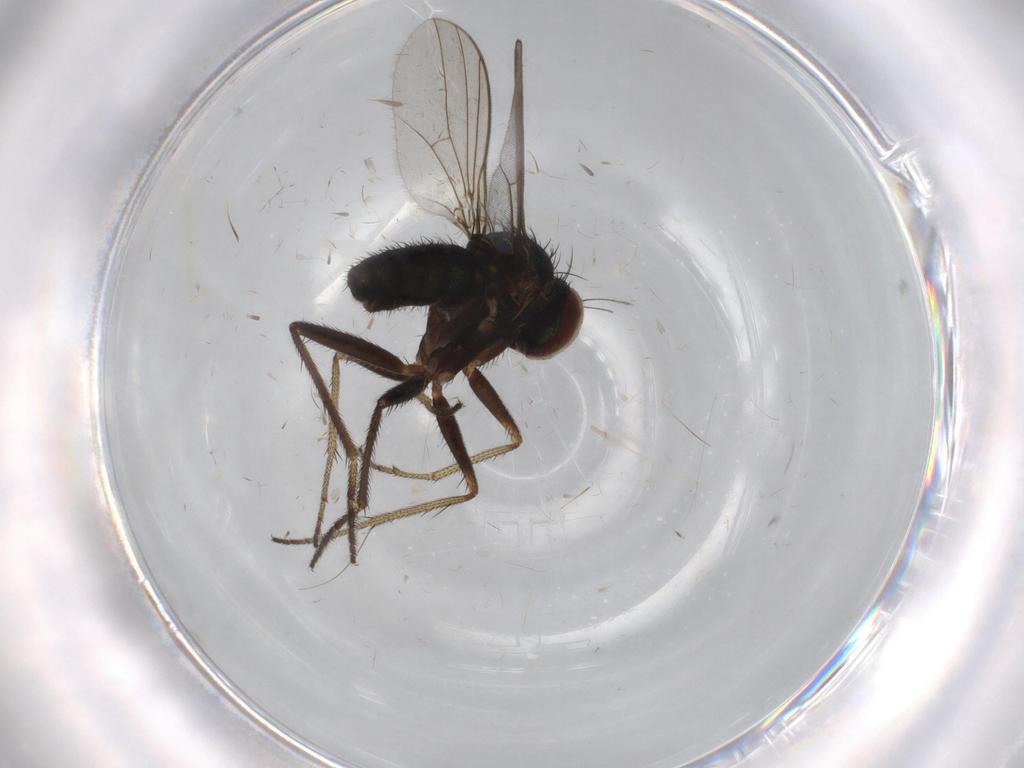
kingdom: Animalia
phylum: Arthropoda
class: Insecta
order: Diptera
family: Dolichopodidae
